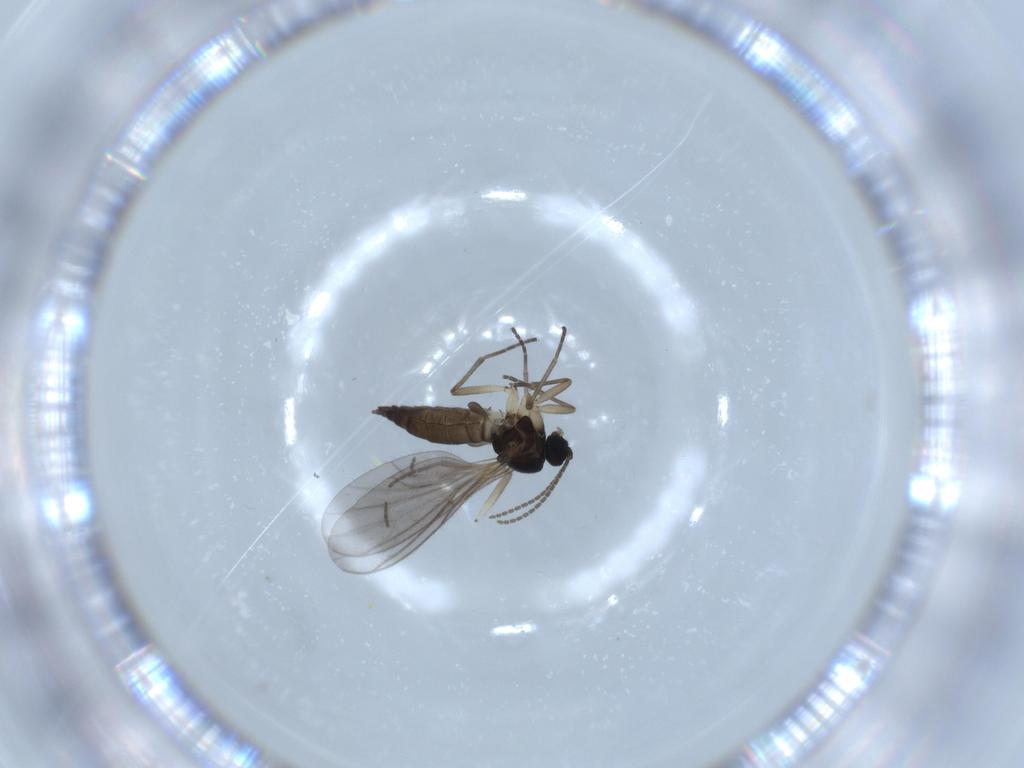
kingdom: Animalia
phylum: Arthropoda
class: Insecta
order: Diptera
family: Sciaridae
